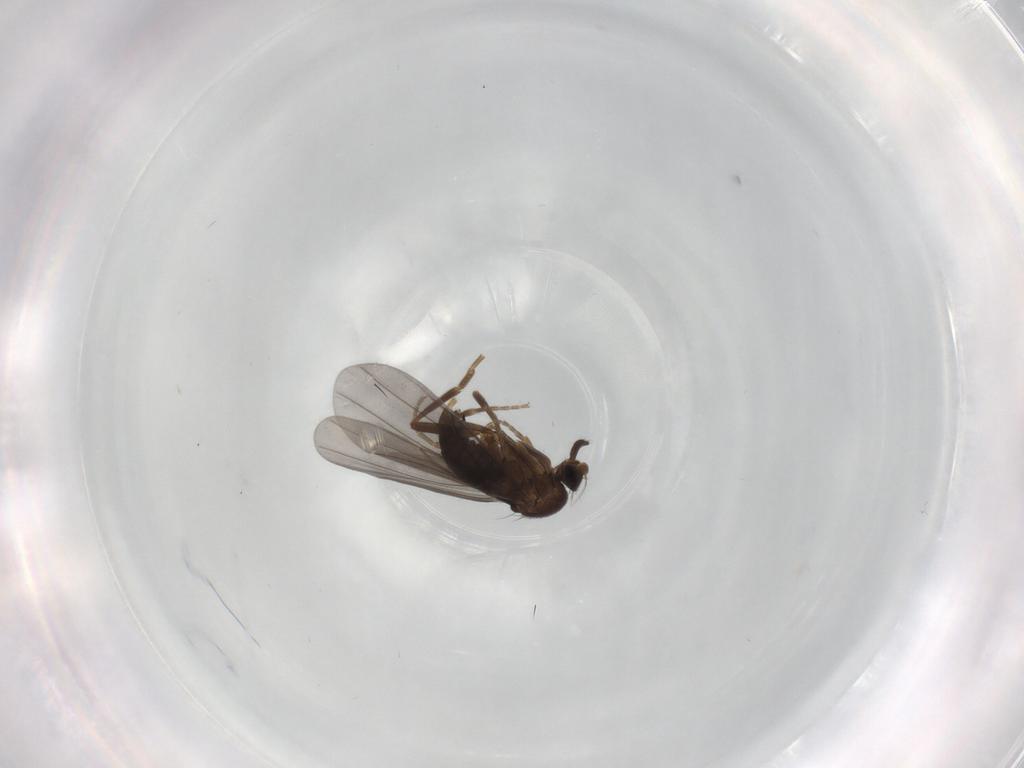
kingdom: Animalia
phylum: Arthropoda
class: Insecta
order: Diptera
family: Phoridae
